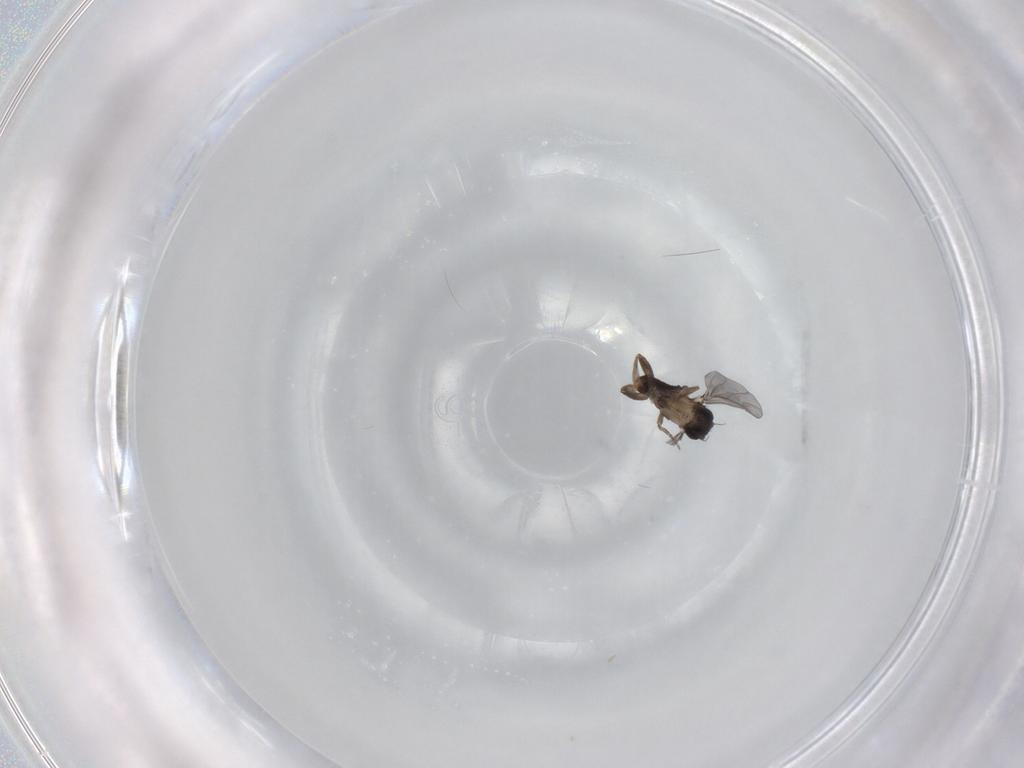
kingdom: Animalia
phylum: Arthropoda
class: Insecta
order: Diptera
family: Phoridae
